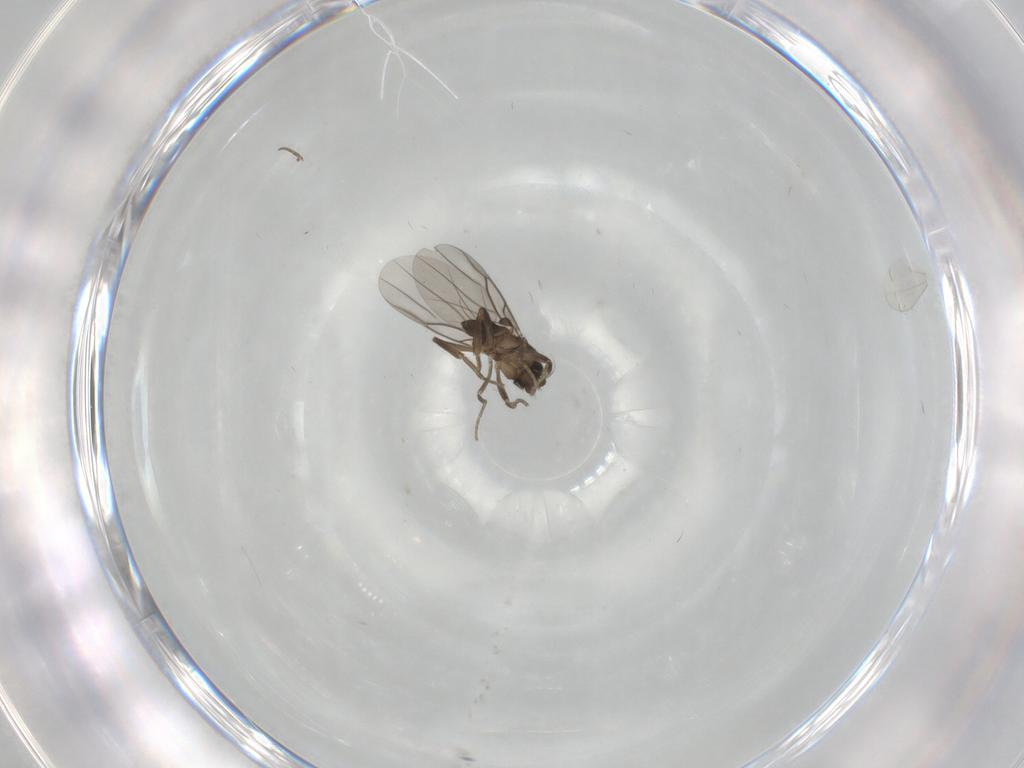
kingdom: Animalia
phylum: Arthropoda
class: Insecta
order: Diptera
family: Phoridae
